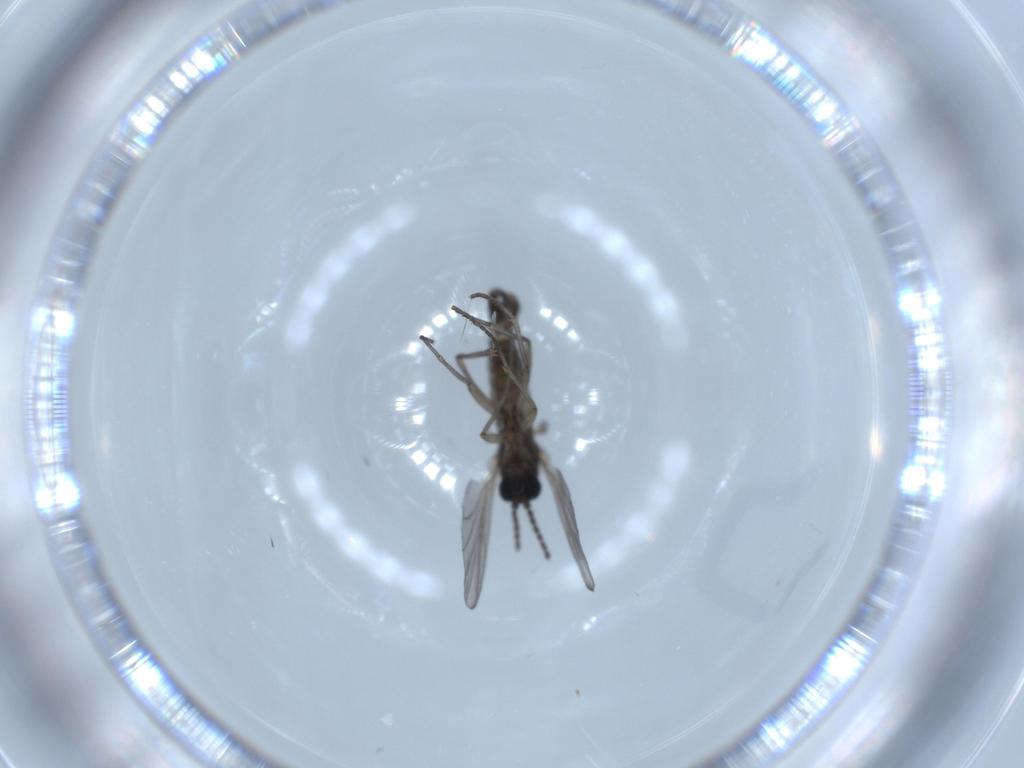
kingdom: Animalia
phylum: Arthropoda
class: Insecta
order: Diptera
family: Sciaridae
